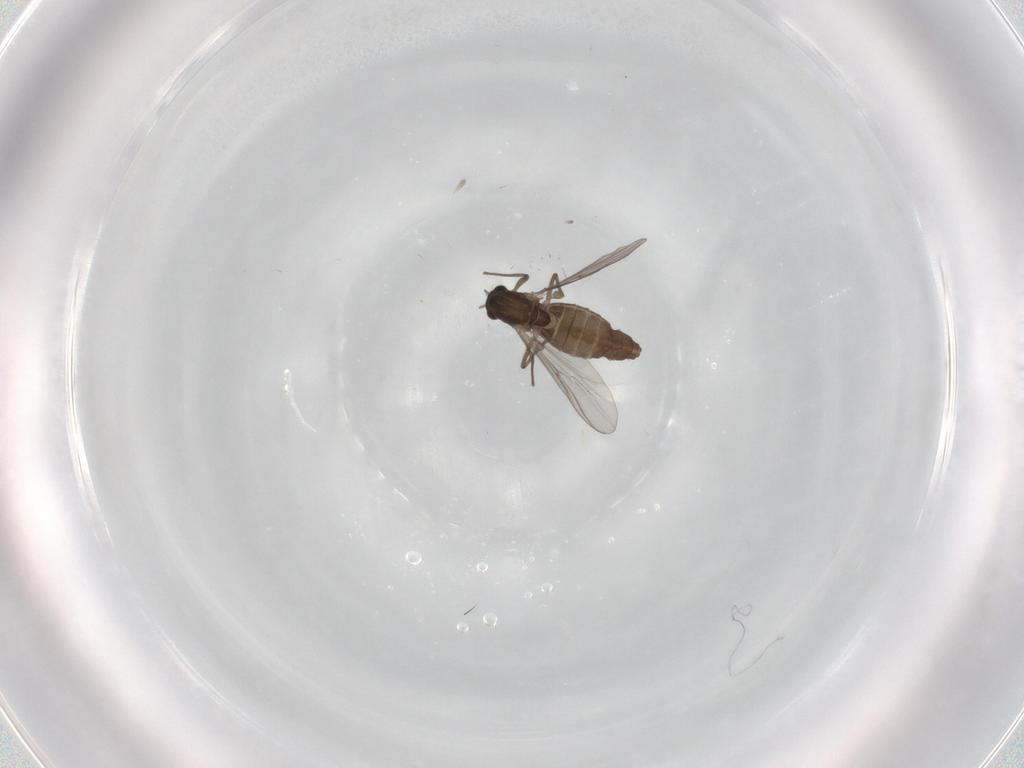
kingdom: Animalia
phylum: Arthropoda
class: Insecta
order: Diptera
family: Chironomidae
